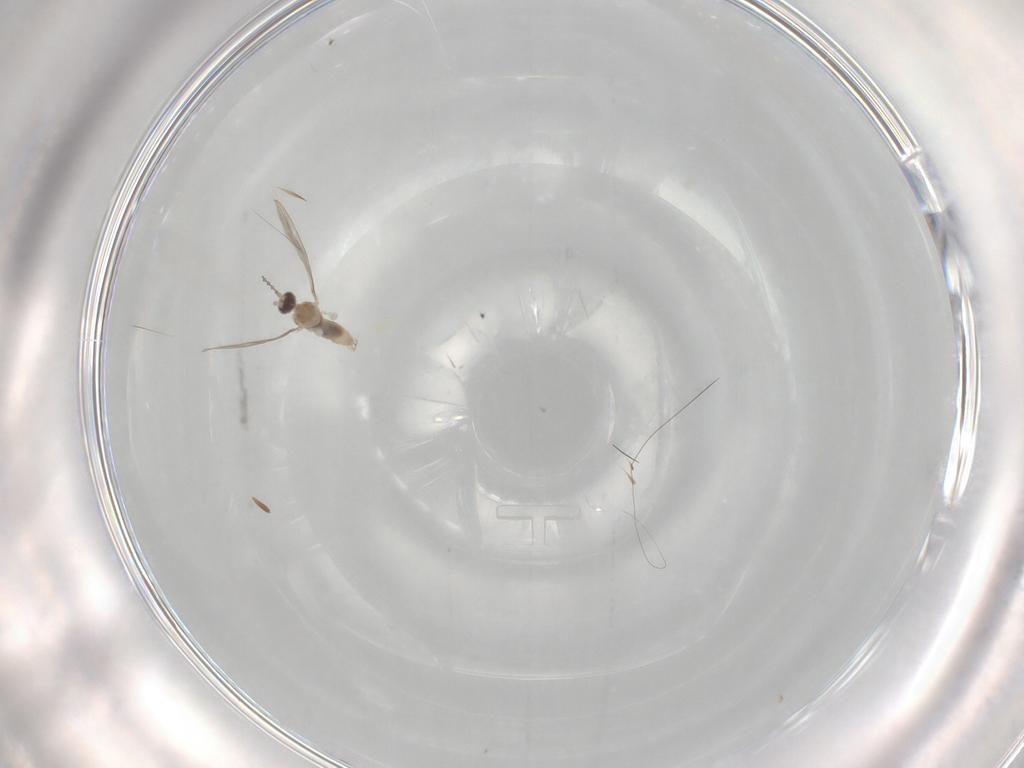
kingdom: Animalia
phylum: Arthropoda
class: Insecta
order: Diptera
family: Cecidomyiidae
